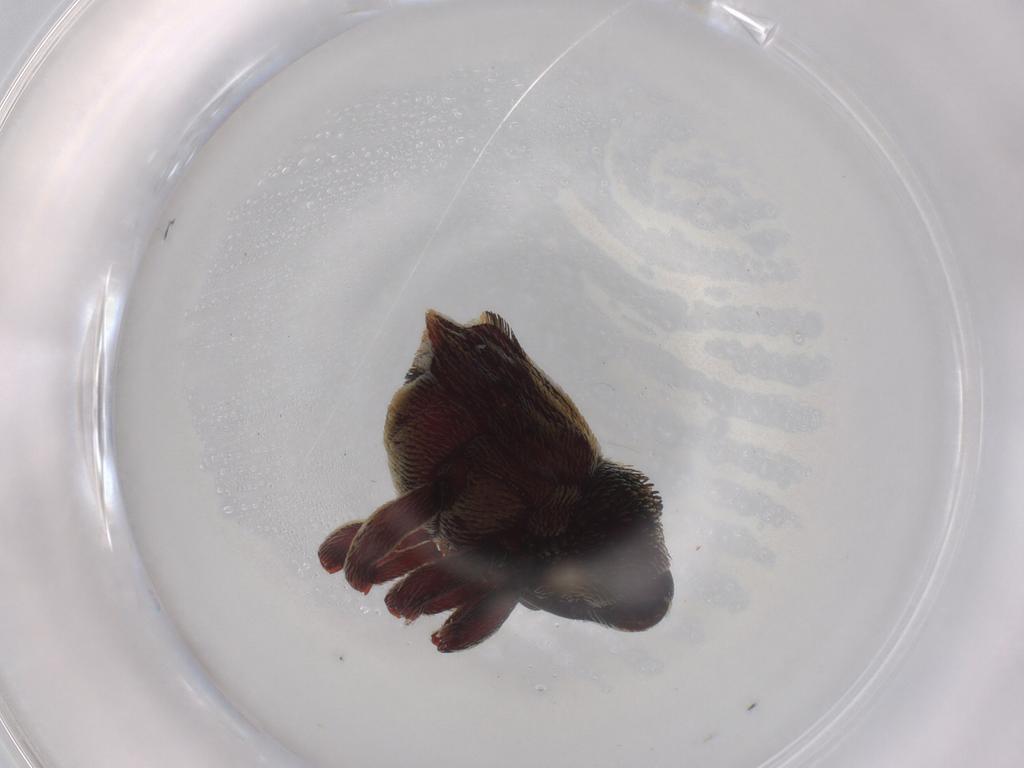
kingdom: Animalia
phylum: Arthropoda
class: Insecta
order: Coleoptera
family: Curculionidae
